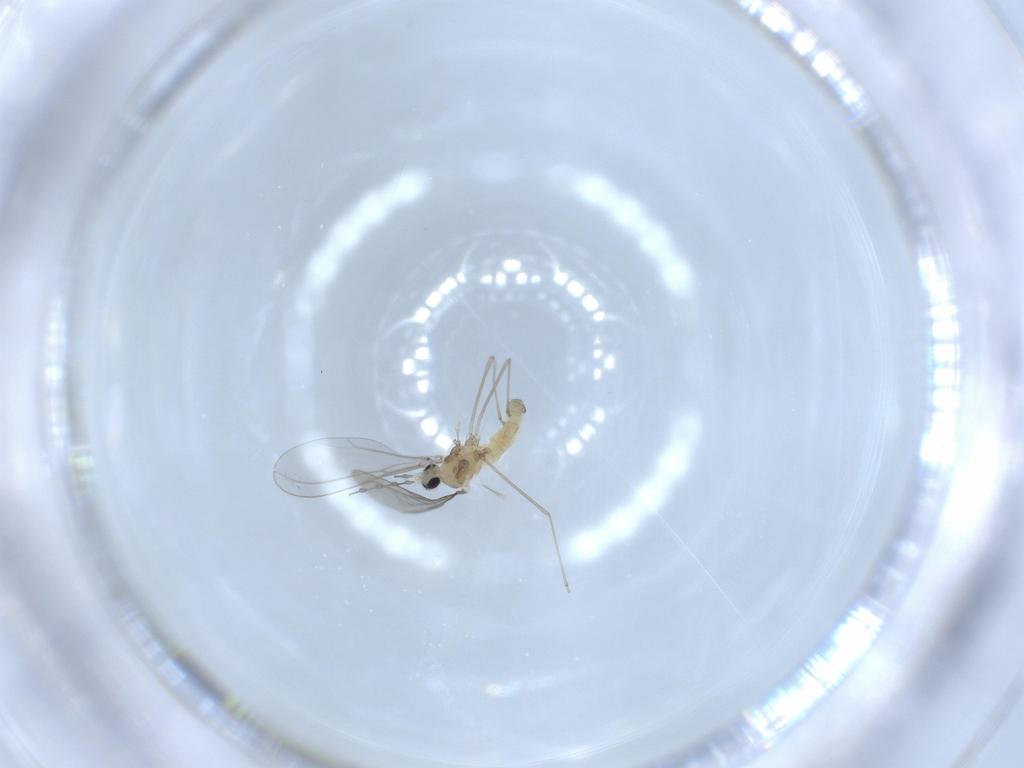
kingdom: Animalia
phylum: Arthropoda
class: Insecta
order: Diptera
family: Cecidomyiidae
